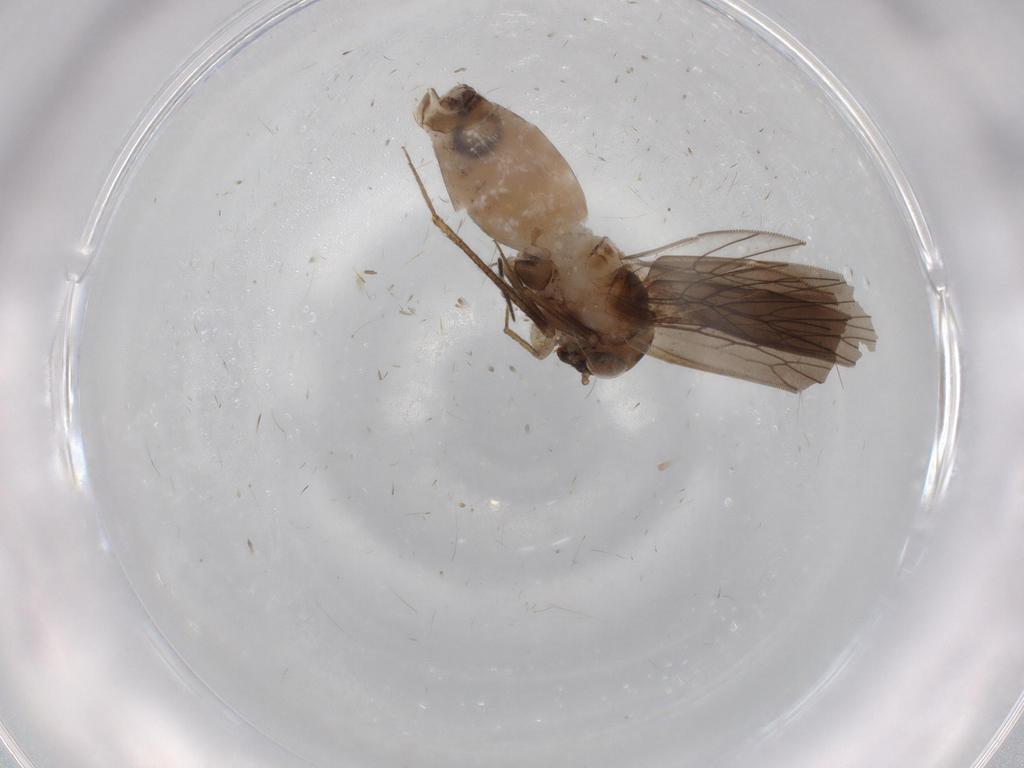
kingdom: Animalia
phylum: Arthropoda
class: Insecta
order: Psocodea
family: Lepidopsocidae
